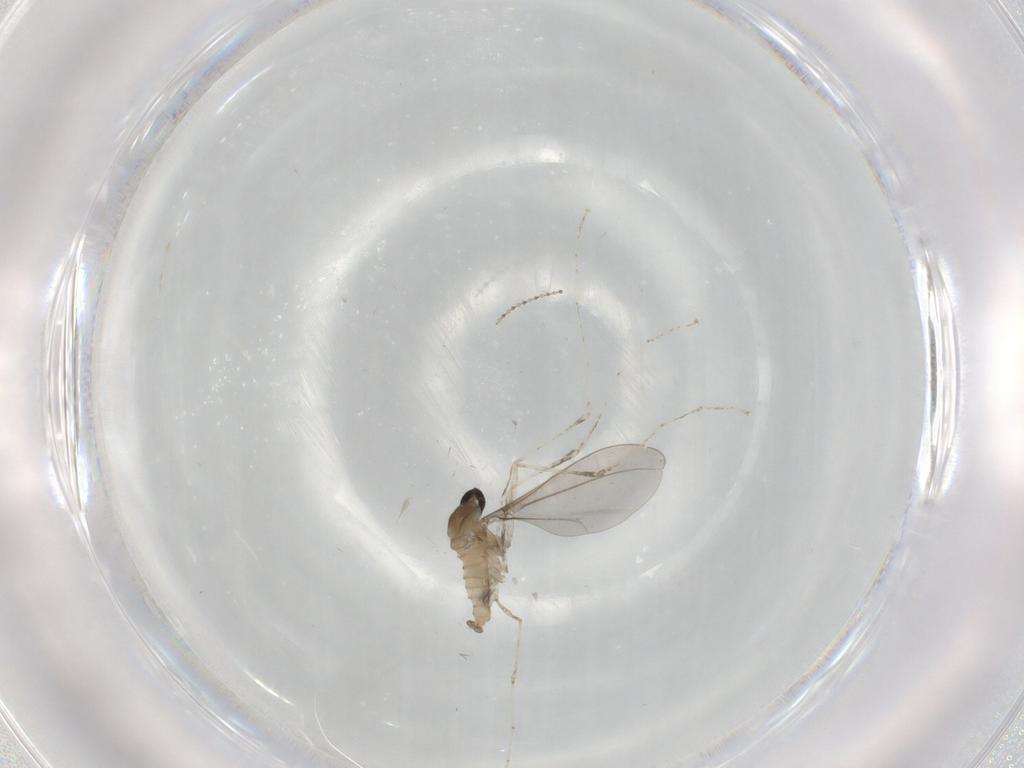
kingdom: Animalia
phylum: Arthropoda
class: Insecta
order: Diptera
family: Cecidomyiidae
